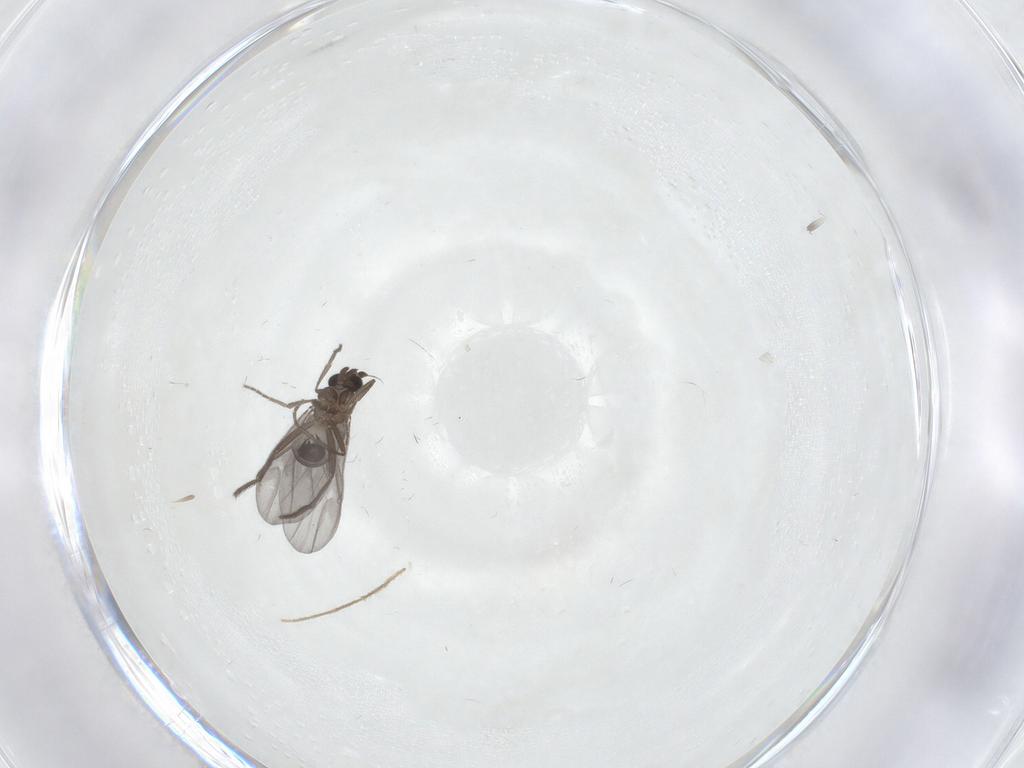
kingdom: Animalia
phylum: Arthropoda
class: Insecta
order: Diptera
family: Phoridae
